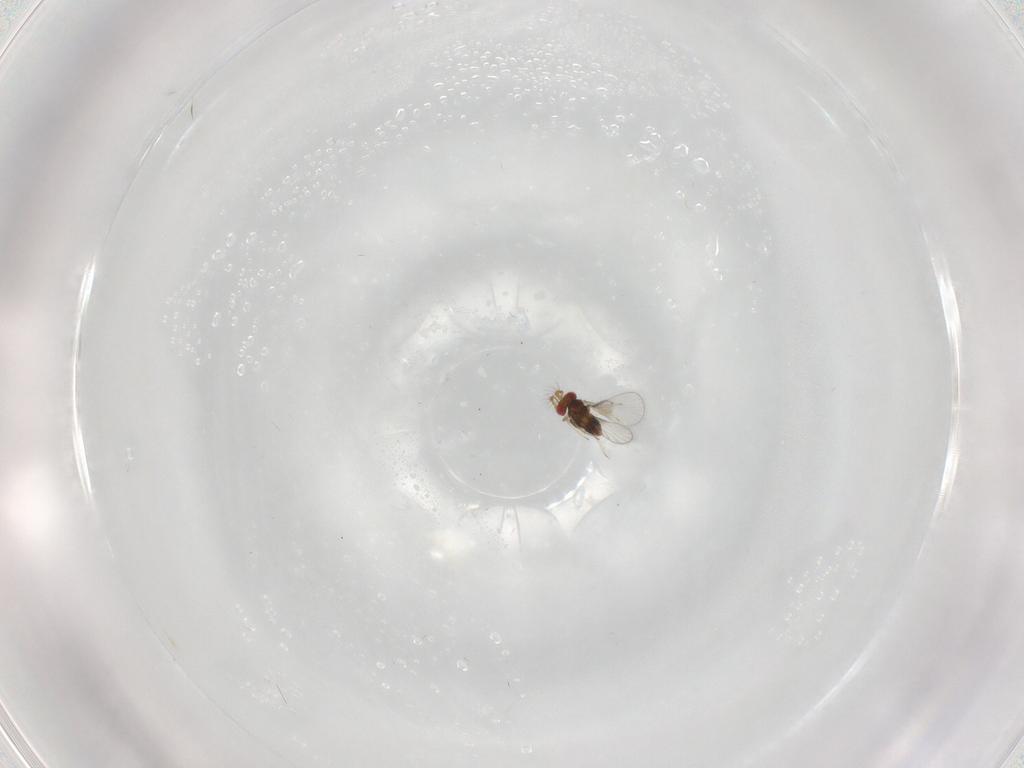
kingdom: Animalia
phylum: Arthropoda
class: Insecta
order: Hymenoptera
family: Trichogrammatidae
